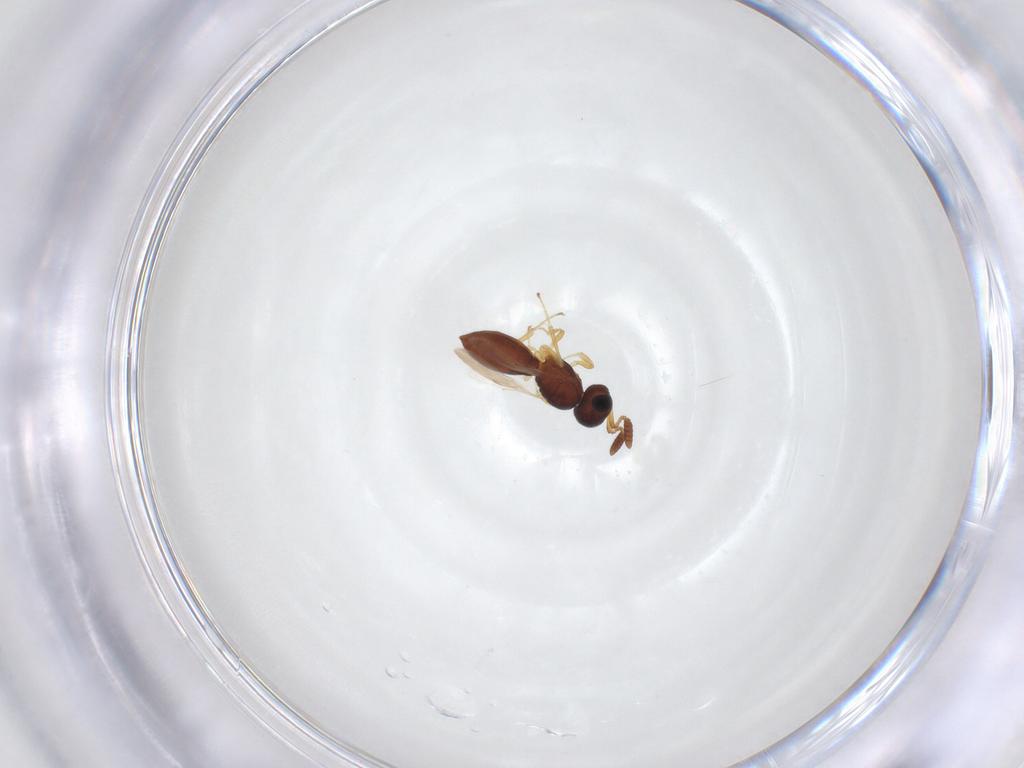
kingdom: Animalia
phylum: Arthropoda
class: Insecta
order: Hymenoptera
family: Scelionidae
